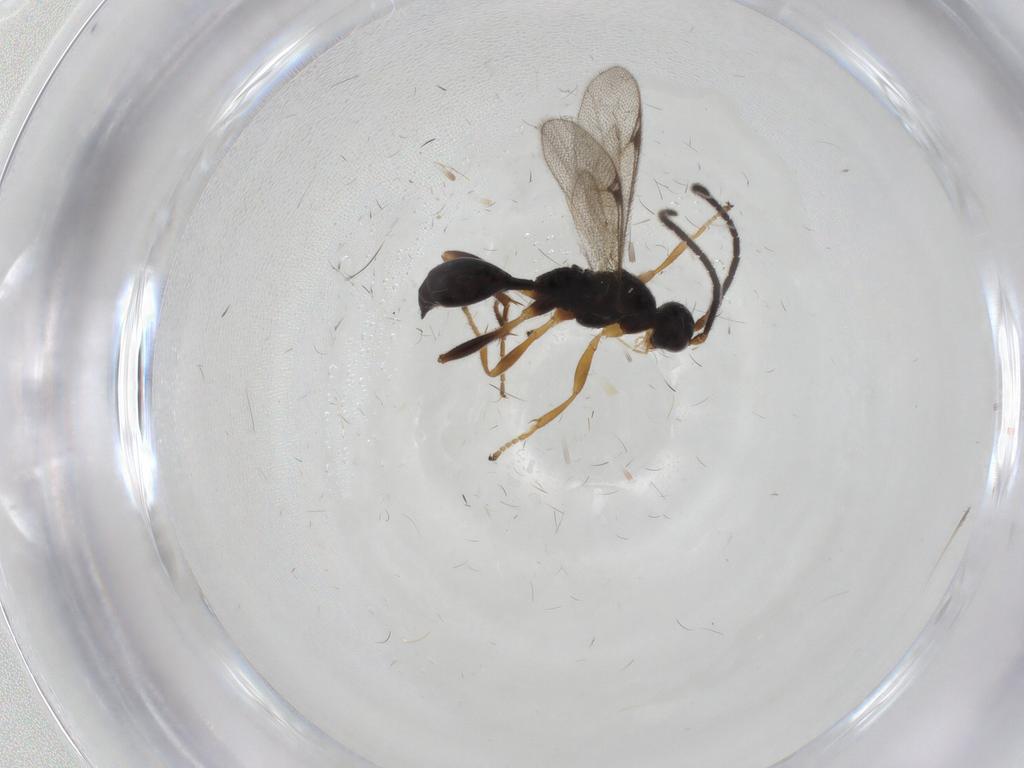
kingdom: Animalia
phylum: Arthropoda
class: Insecta
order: Hymenoptera
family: Proctotrupidae
